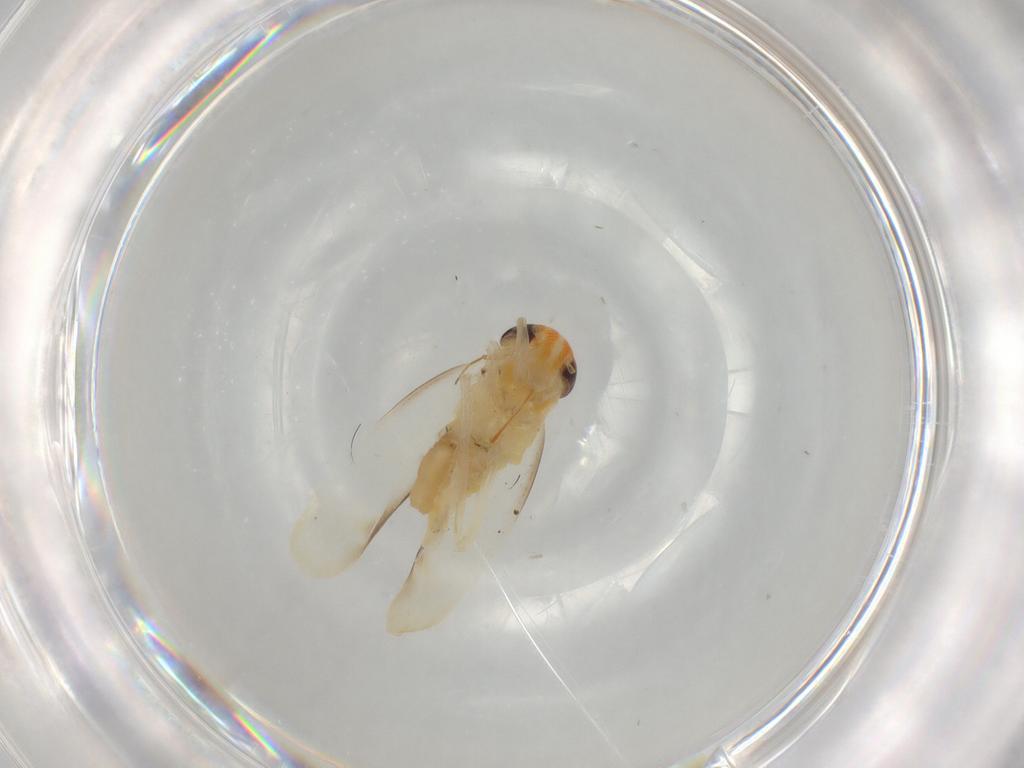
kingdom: Animalia
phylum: Arthropoda
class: Insecta
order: Hemiptera
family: Cicadellidae
